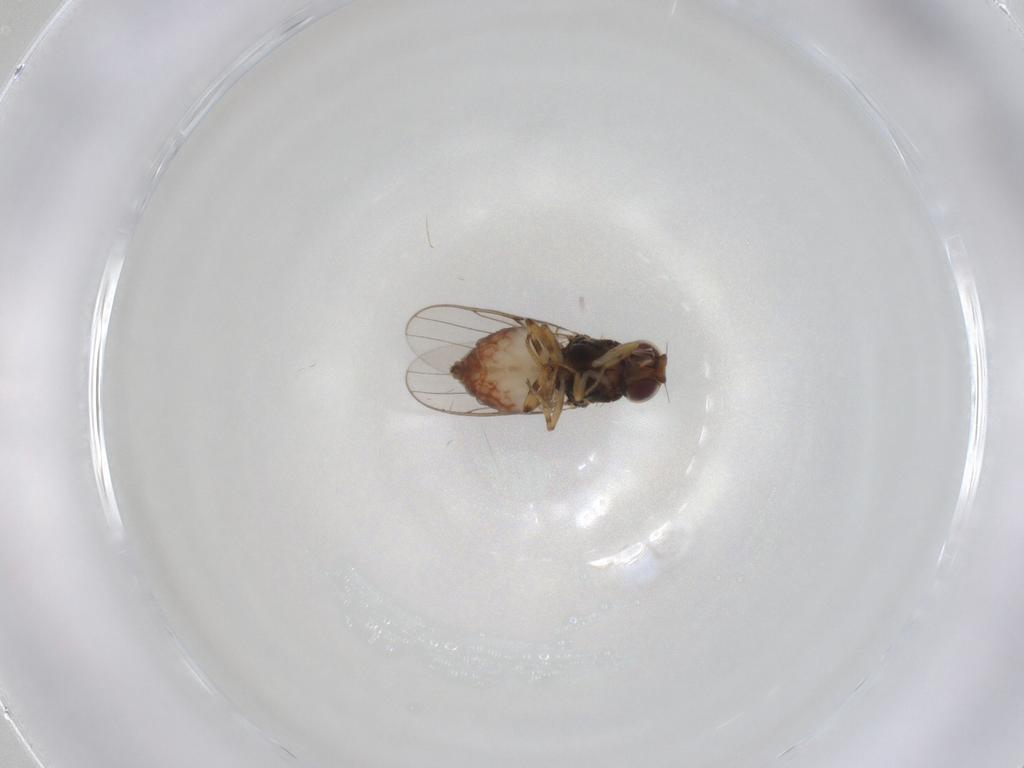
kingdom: Animalia
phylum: Arthropoda
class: Insecta
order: Diptera
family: Chloropidae
